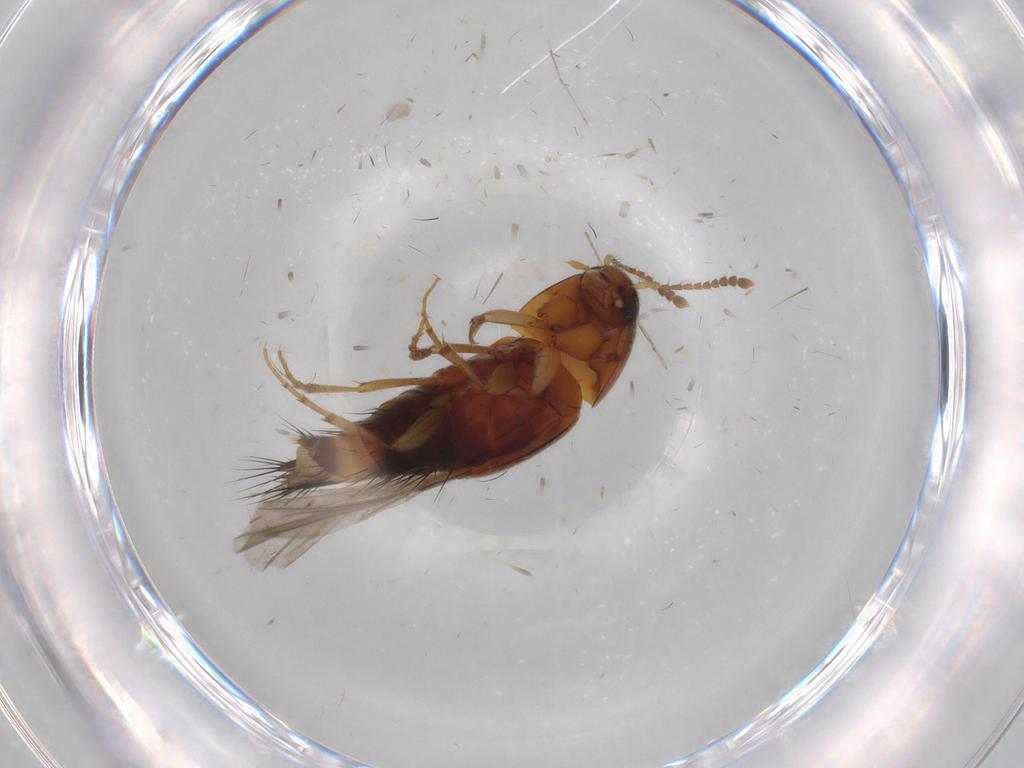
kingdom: Animalia
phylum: Arthropoda
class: Insecta
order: Coleoptera
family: Staphylinidae
